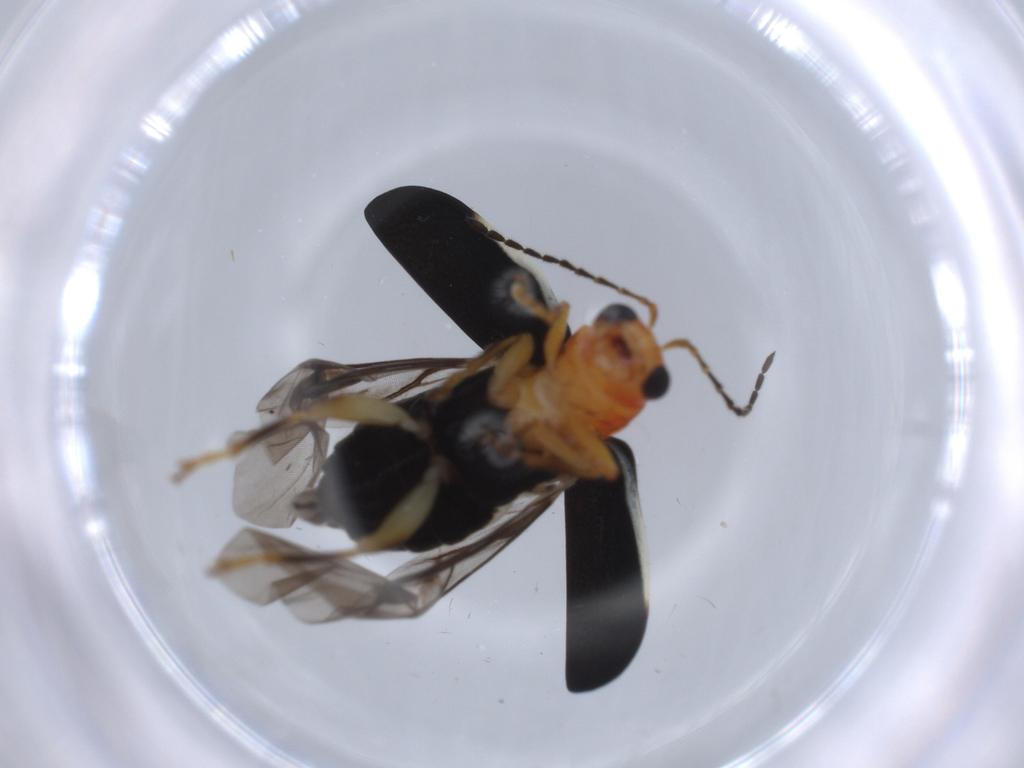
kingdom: Animalia
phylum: Arthropoda
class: Insecta
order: Coleoptera
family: Chrysomelidae
